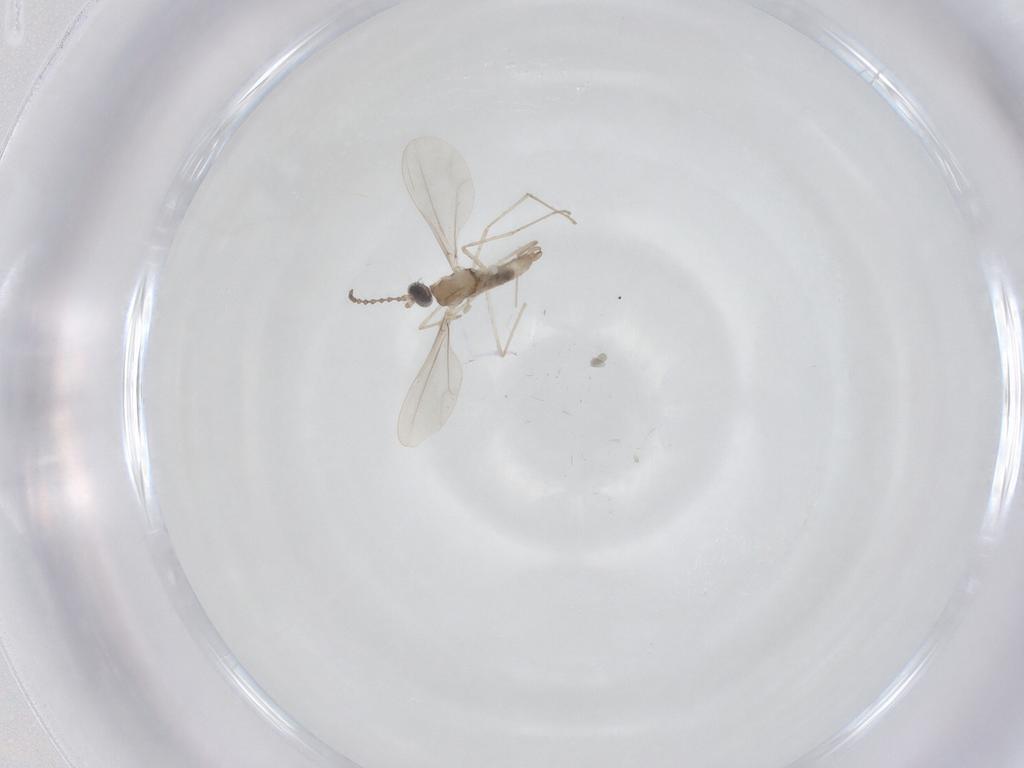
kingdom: Animalia
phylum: Arthropoda
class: Insecta
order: Diptera
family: Cecidomyiidae
